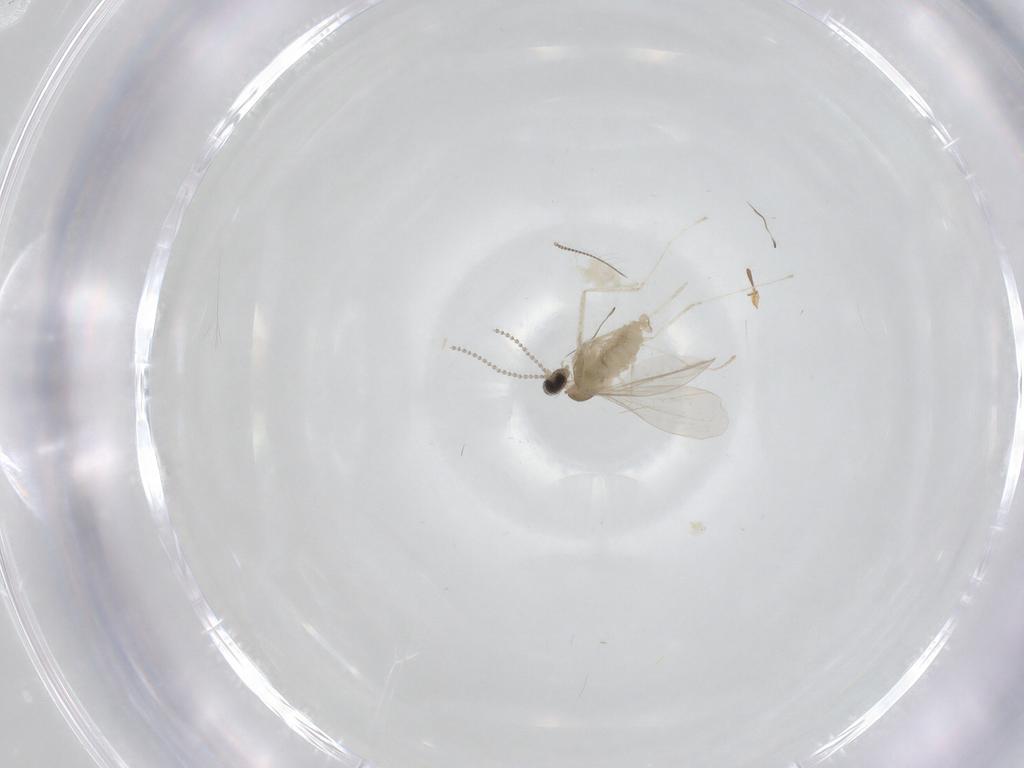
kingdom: Animalia
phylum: Arthropoda
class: Insecta
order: Diptera
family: Cecidomyiidae
